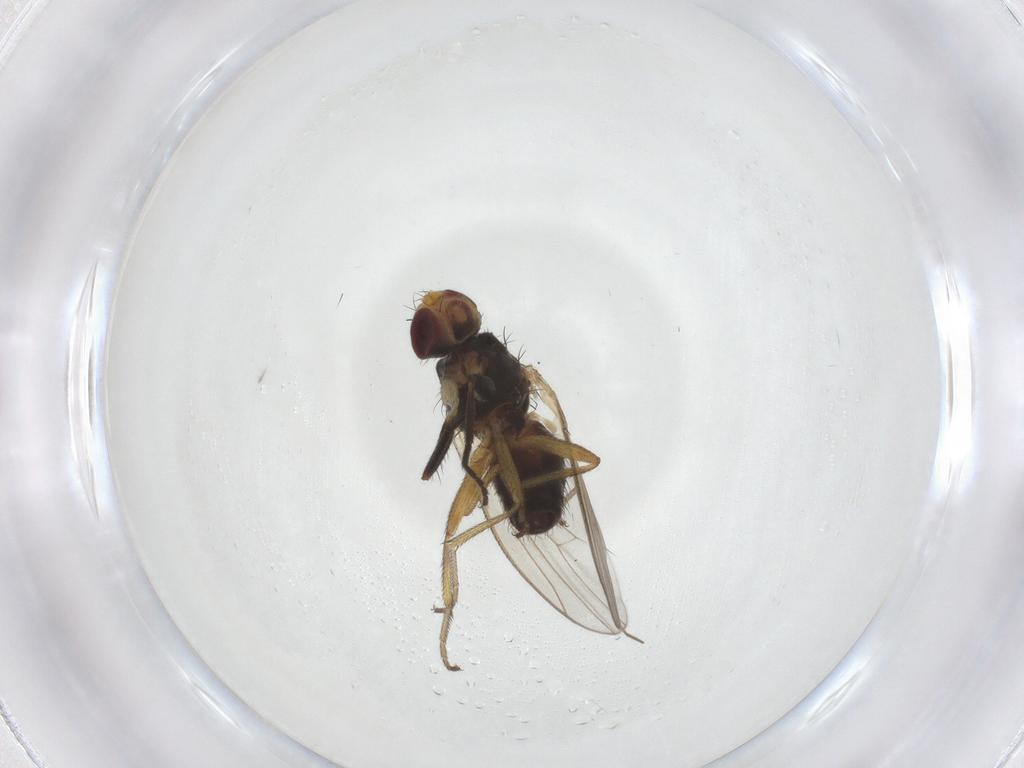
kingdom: Animalia
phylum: Arthropoda
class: Insecta
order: Diptera
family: Heleomyzidae
